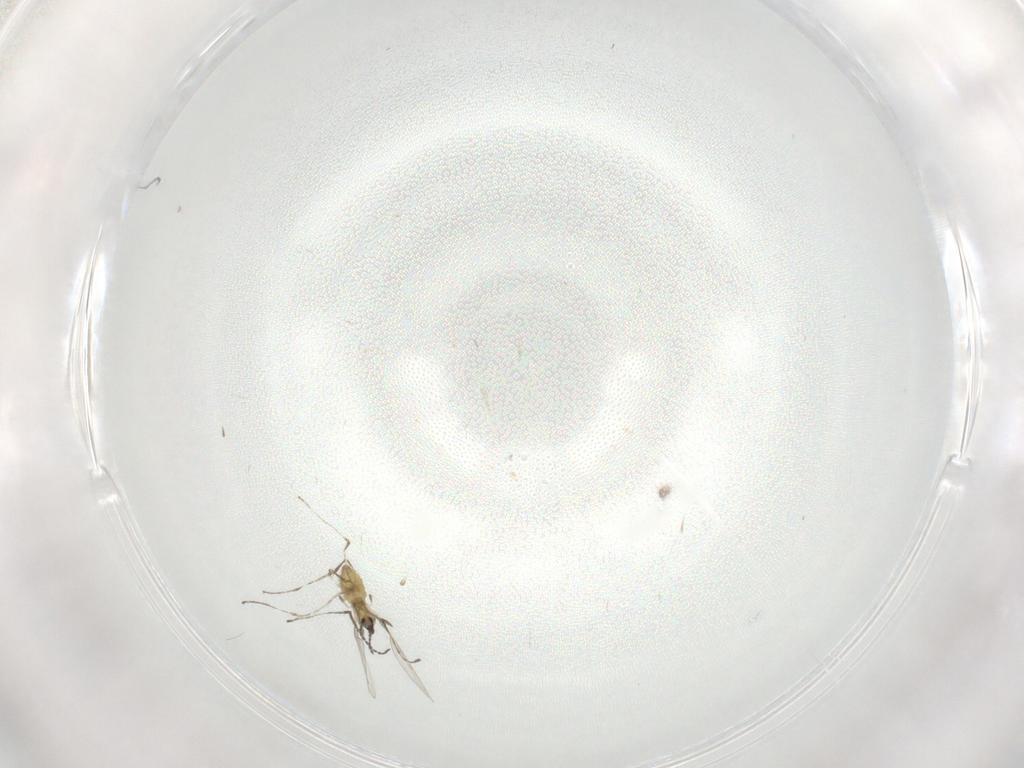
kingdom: Animalia
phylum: Arthropoda
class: Insecta
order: Diptera
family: Cecidomyiidae
